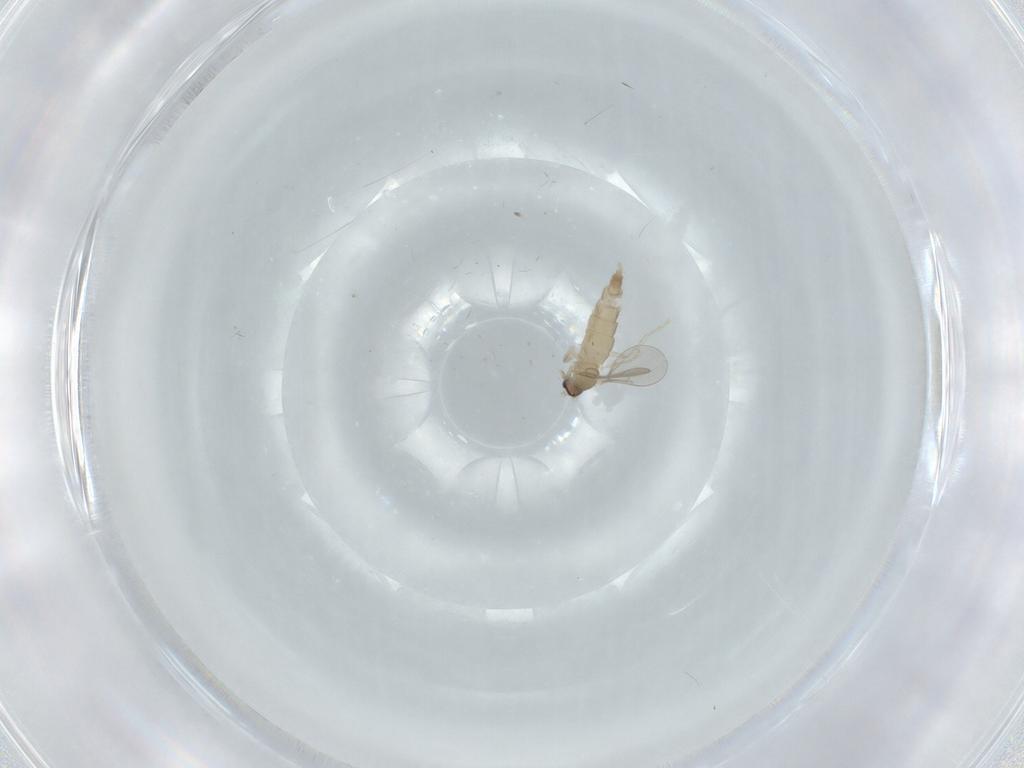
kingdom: Animalia
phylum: Arthropoda
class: Insecta
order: Diptera
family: Cecidomyiidae
